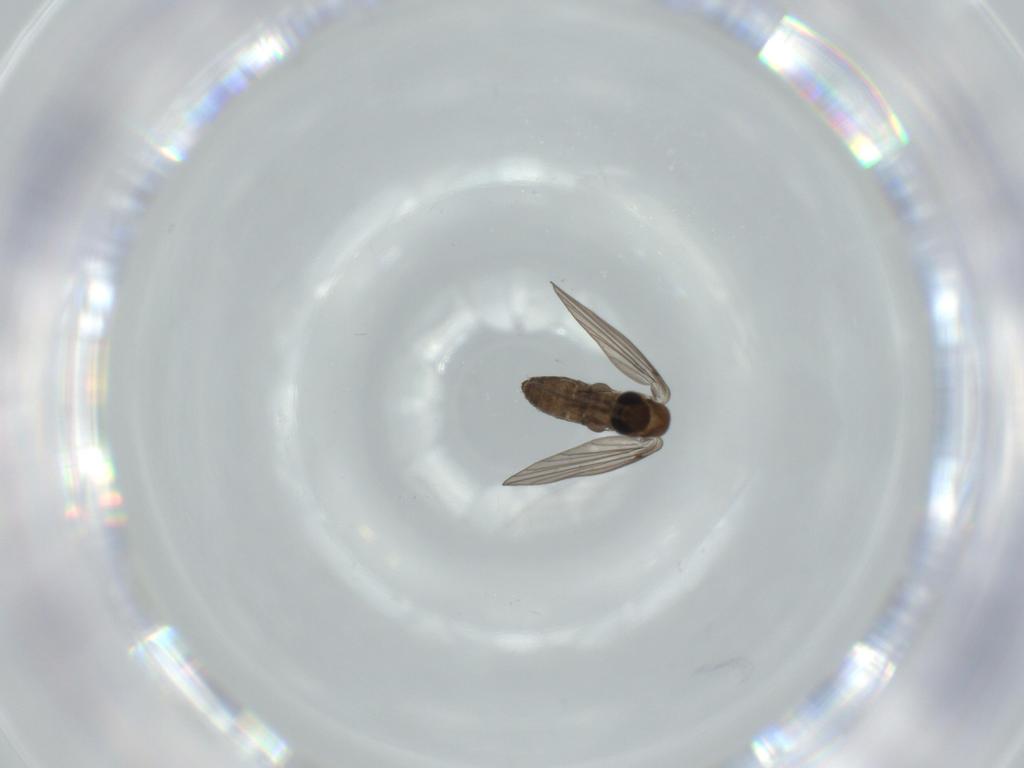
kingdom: Animalia
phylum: Arthropoda
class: Insecta
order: Diptera
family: Psychodidae
